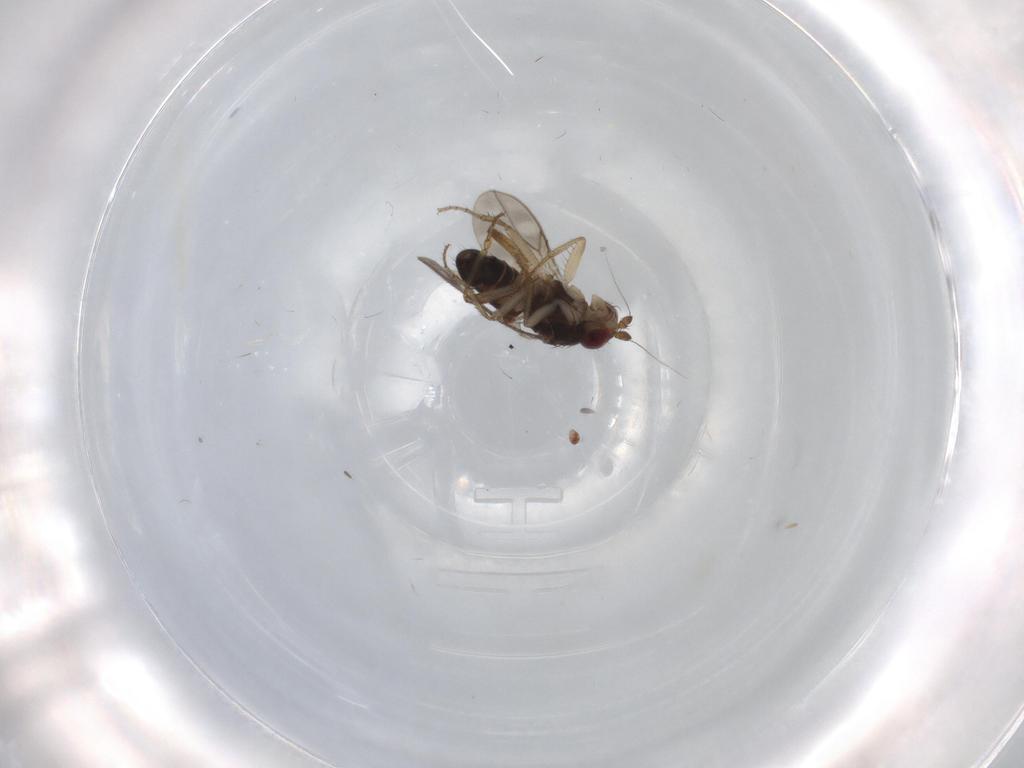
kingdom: Animalia
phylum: Arthropoda
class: Insecta
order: Diptera
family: Sphaeroceridae
